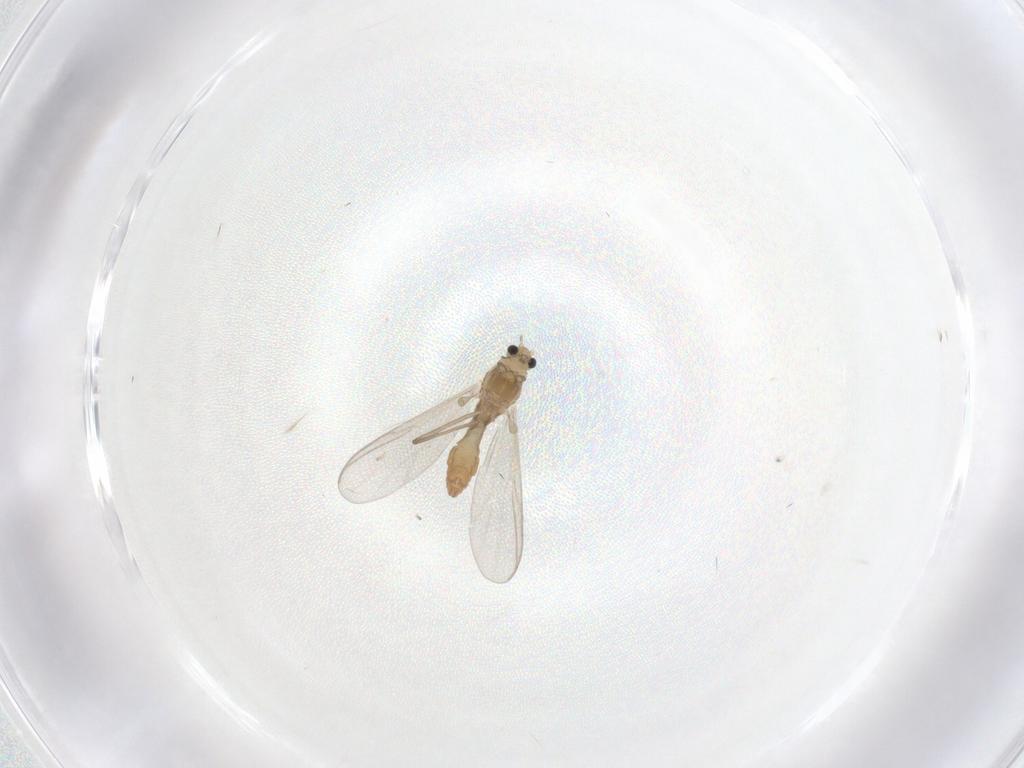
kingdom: Animalia
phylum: Arthropoda
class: Insecta
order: Diptera
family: Chironomidae
